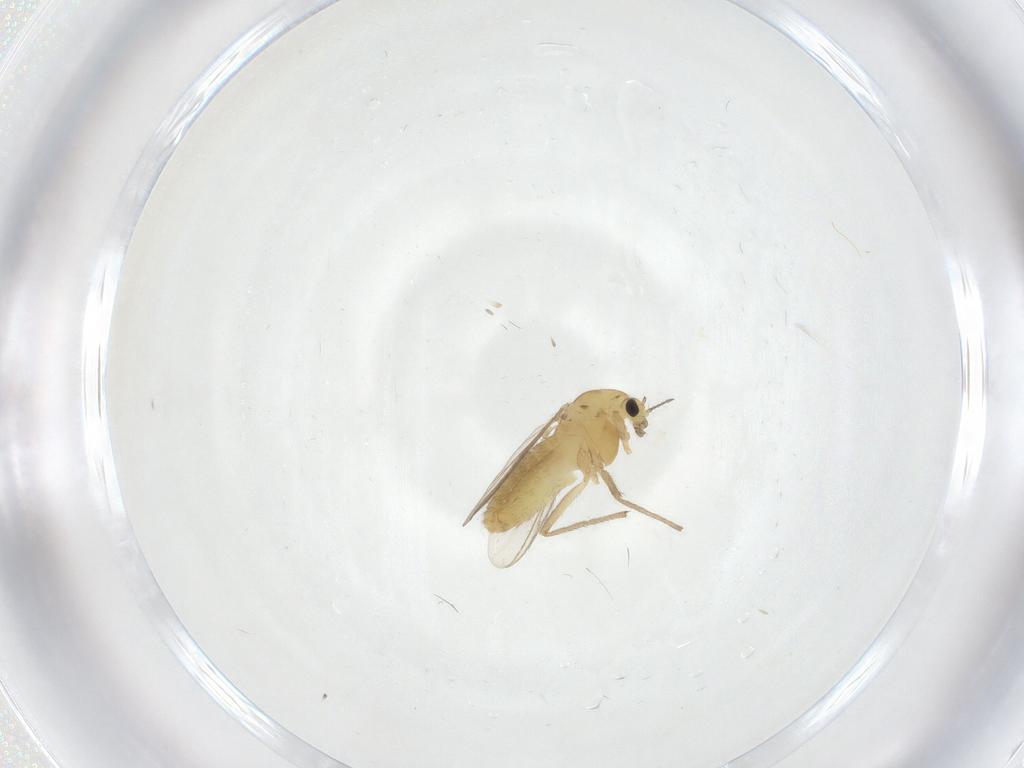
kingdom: Animalia
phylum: Arthropoda
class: Insecta
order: Diptera
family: Chironomidae
